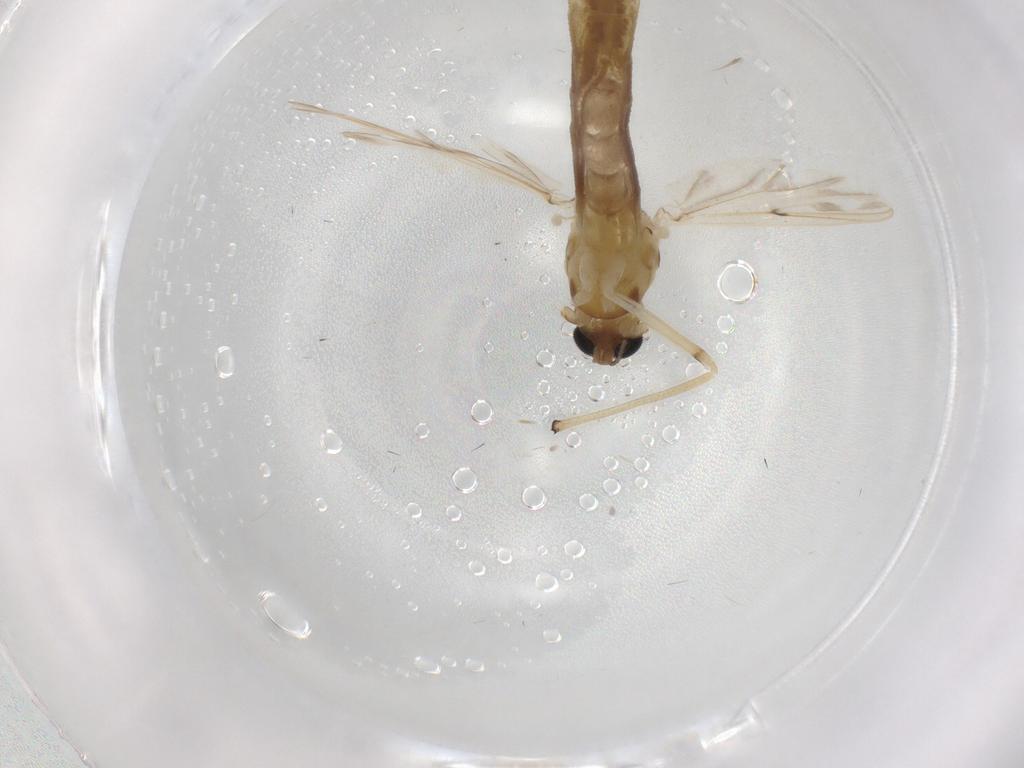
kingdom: Animalia
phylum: Arthropoda
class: Insecta
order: Diptera
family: Cecidomyiidae
